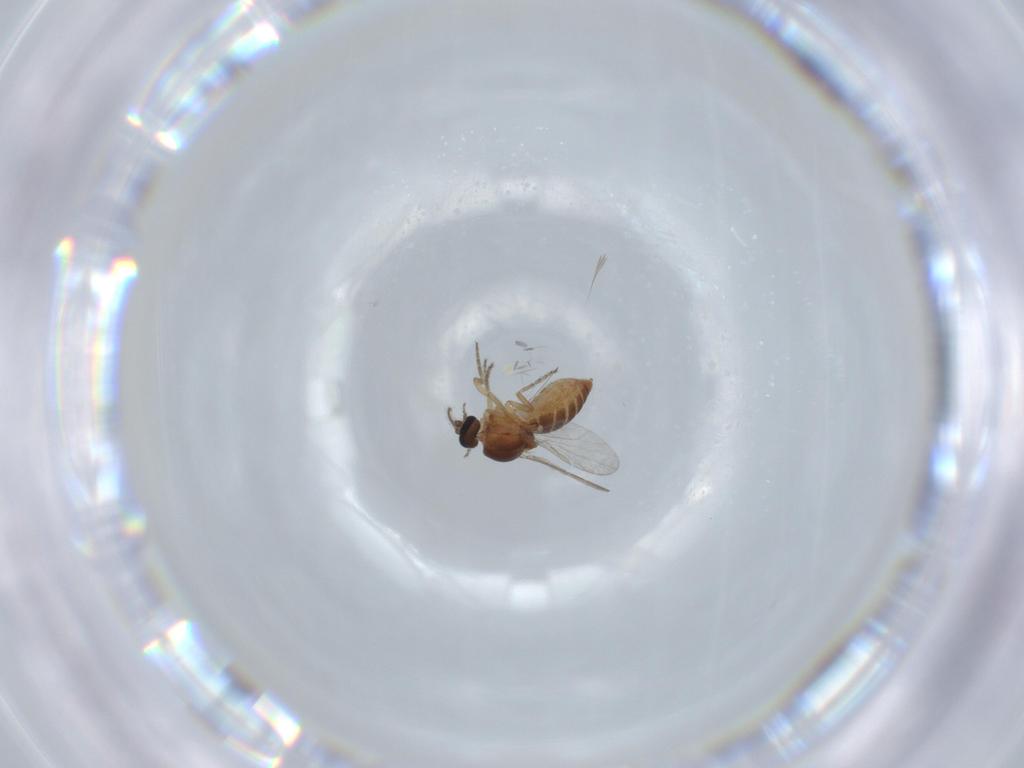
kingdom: Animalia
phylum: Arthropoda
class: Insecta
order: Diptera
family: Ceratopogonidae
